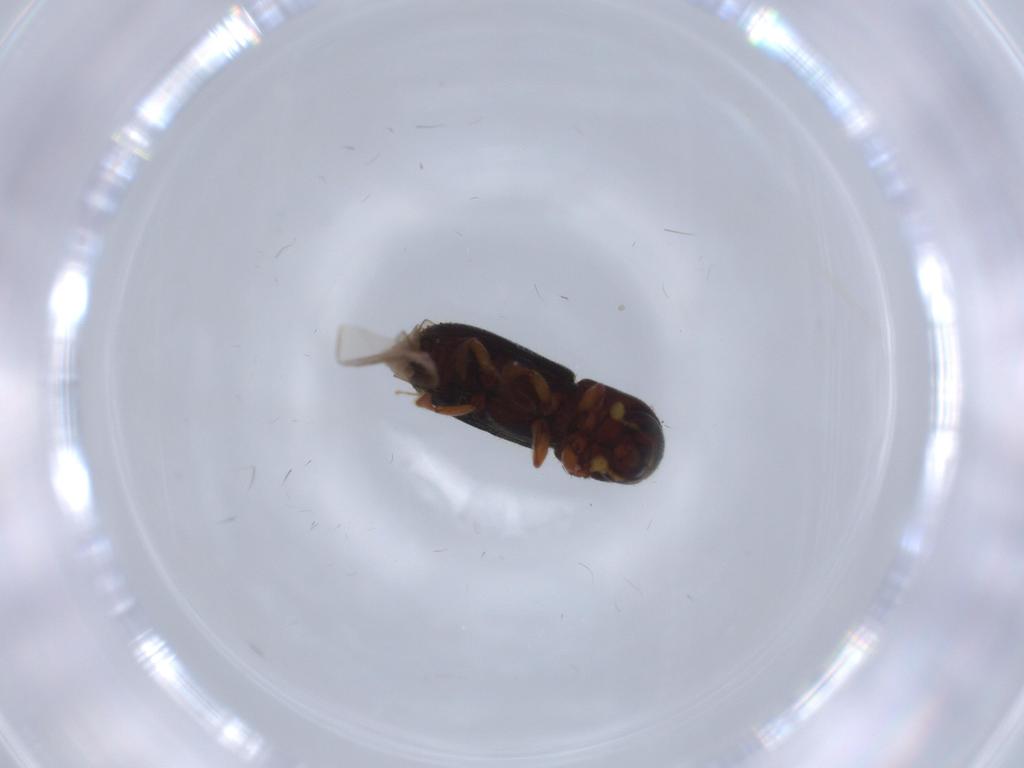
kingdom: Animalia
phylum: Arthropoda
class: Insecta
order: Coleoptera
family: Curculionidae
